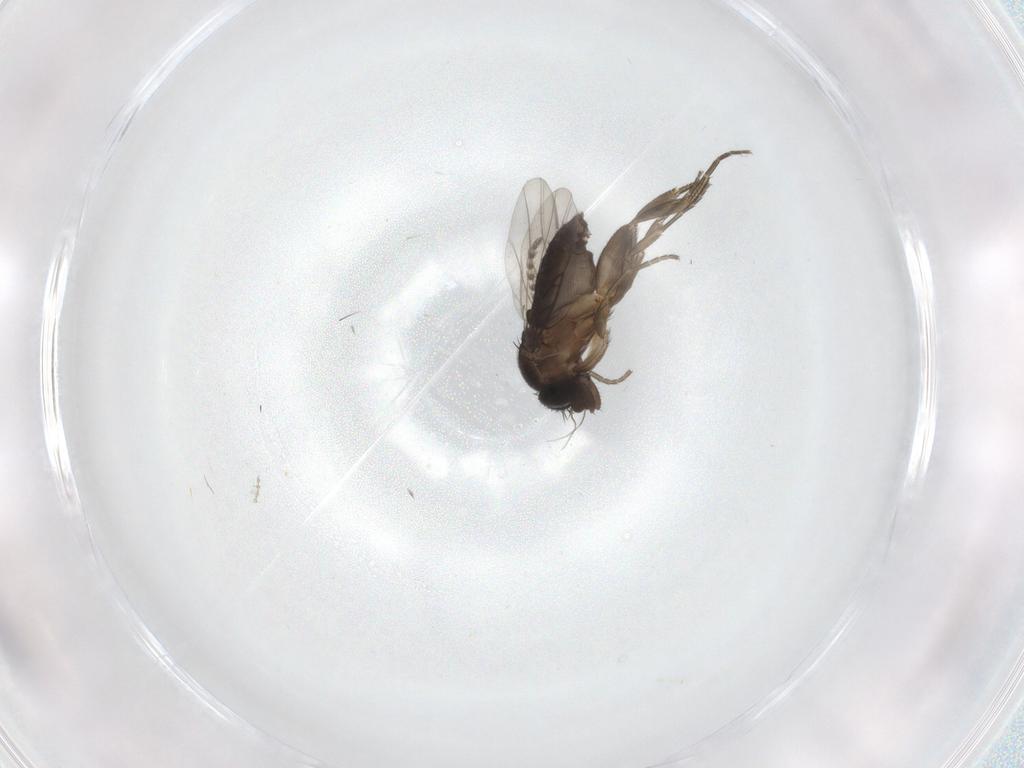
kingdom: Animalia
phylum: Arthropoda
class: Insecta
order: Diptera
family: Phoridae
